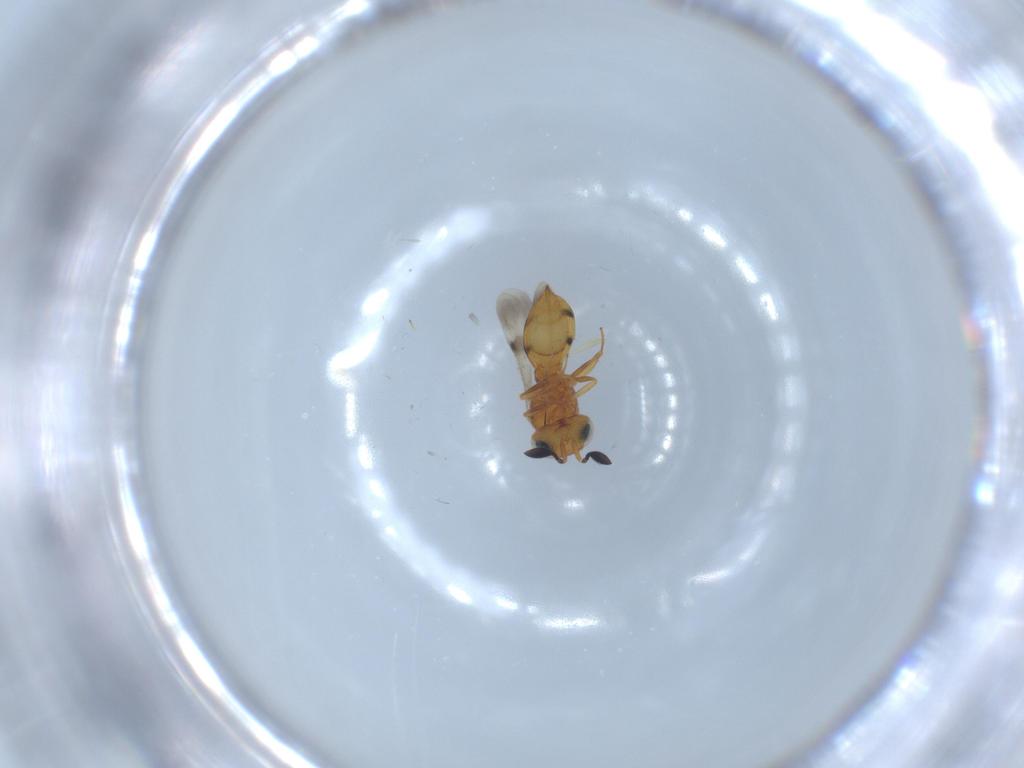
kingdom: Animalia
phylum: Arthropoda
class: Insecta
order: Hymenoptera
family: Scelionidae
